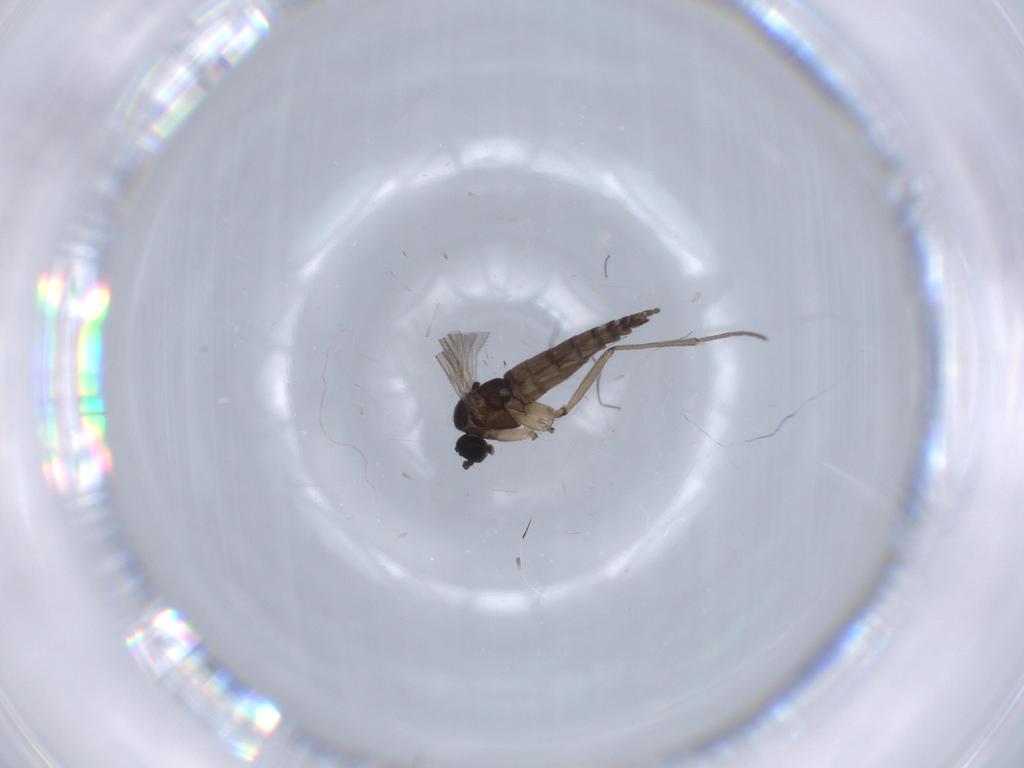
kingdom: Animalia
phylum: Arthropoda
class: Insecta
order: Diptera
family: Sciaridae
